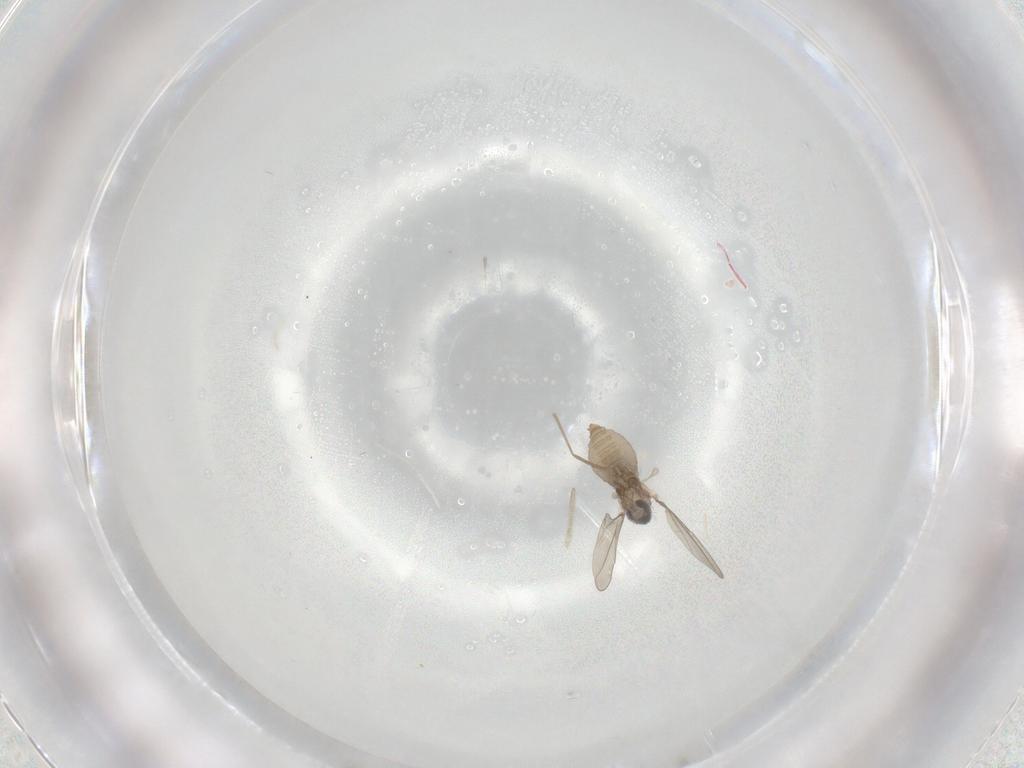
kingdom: Animalia
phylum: Arthropoda
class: Insecta
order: Diptera
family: Cecidomyiidae
